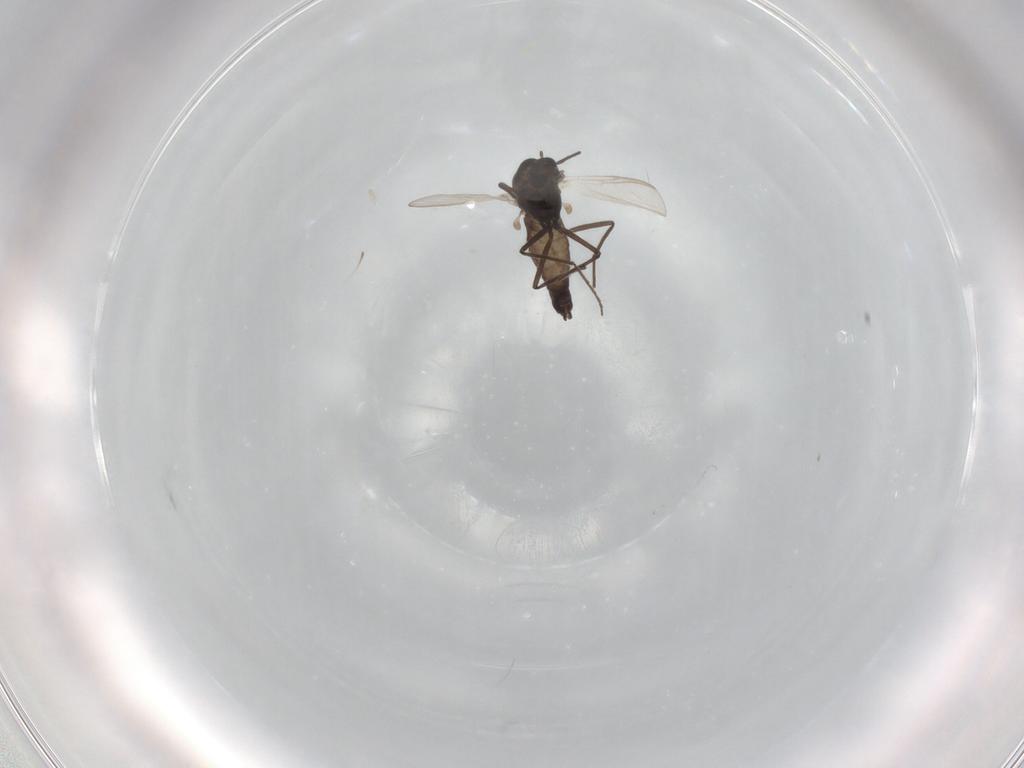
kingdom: Animalia
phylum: Arthropoda
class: Insecta
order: Diptera
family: Chironomidae
